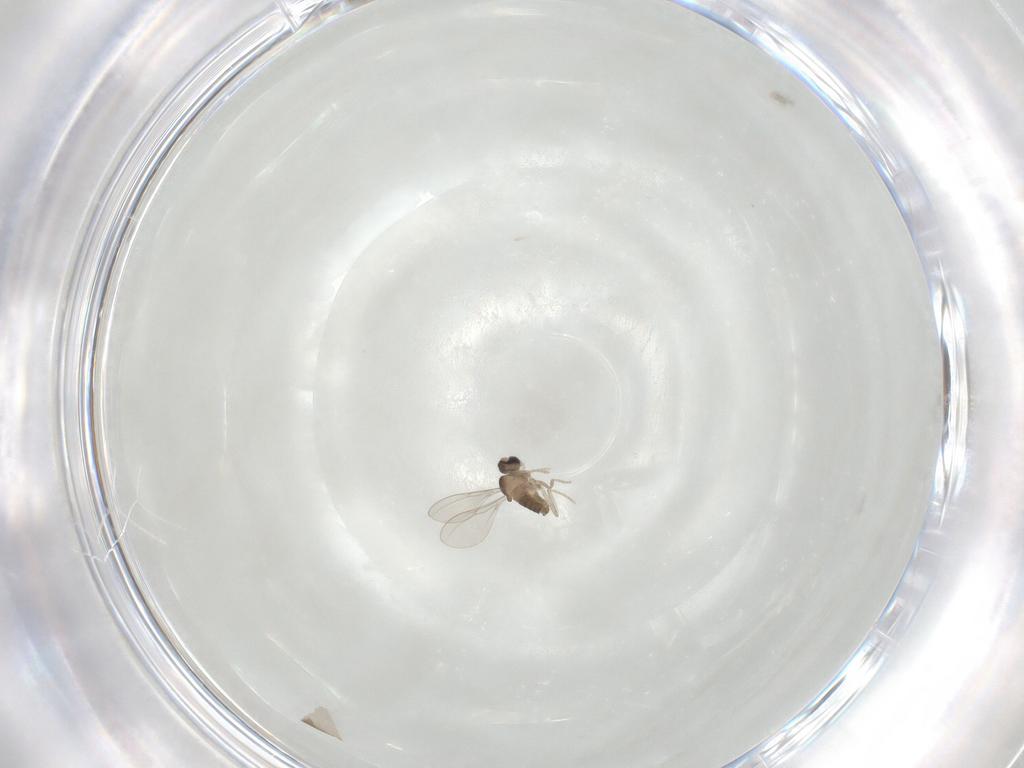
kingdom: Animalia
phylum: Arthropoda
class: Insecta
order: Diptera
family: Cecidomyiidae
